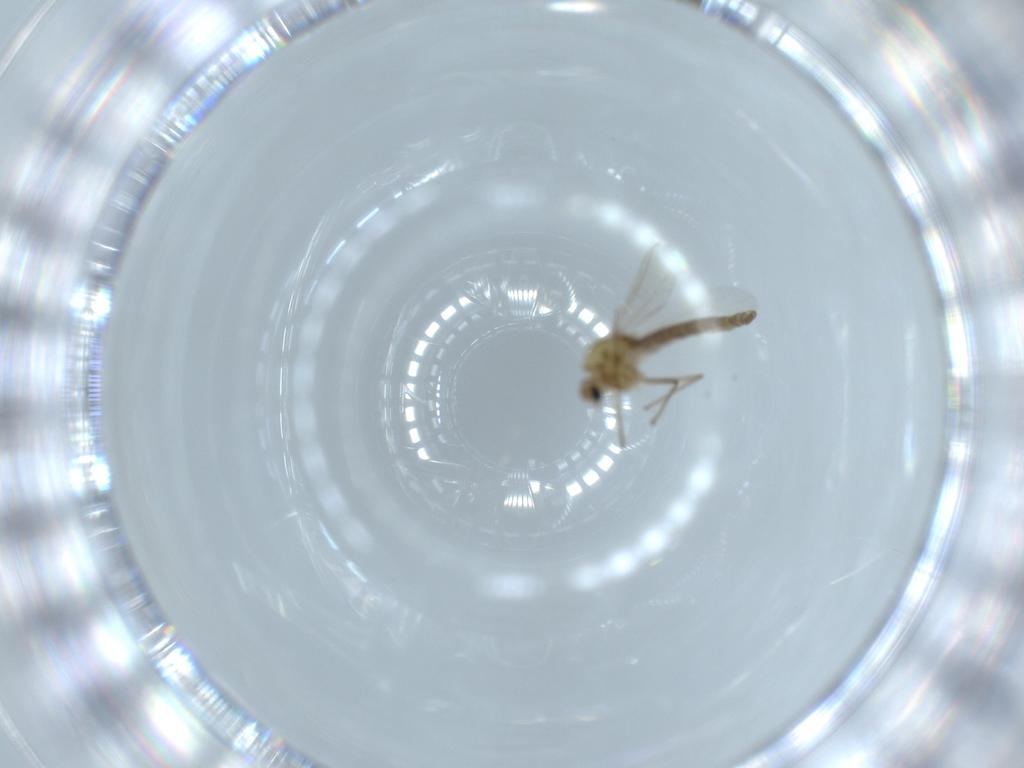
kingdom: Animalia
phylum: Arthropoda
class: Insecta
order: Diptera
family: Chironomidae
